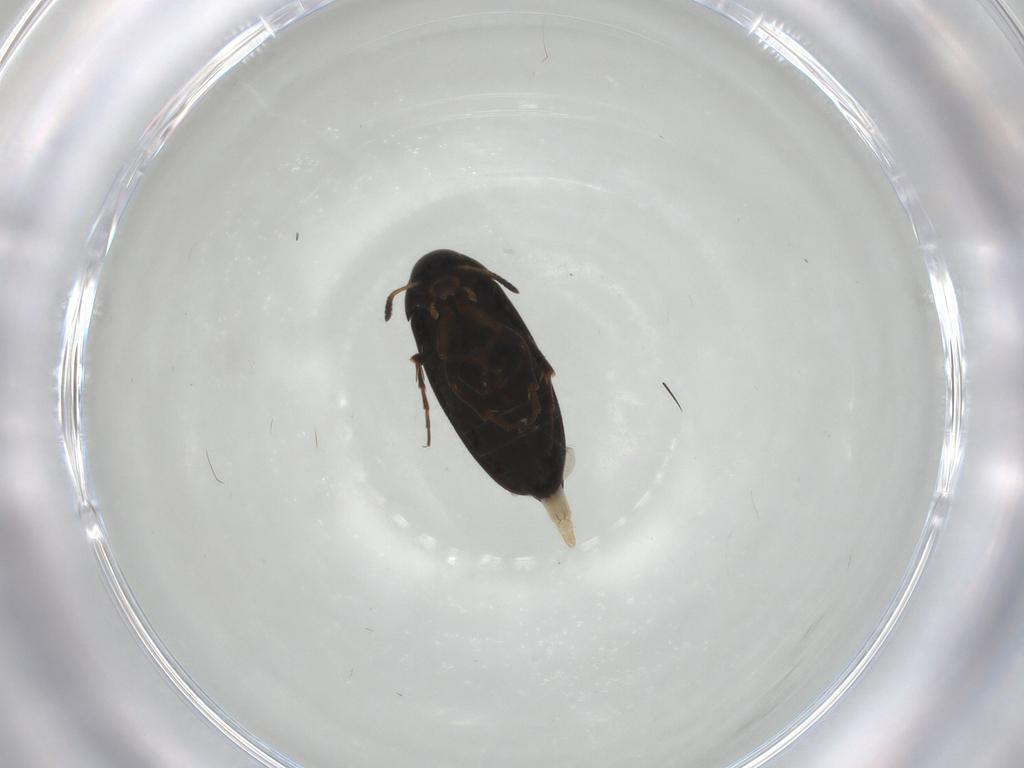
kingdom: Animalia
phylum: Arthropoda
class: Insecta
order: Coleoptera
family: Scraptiidae
